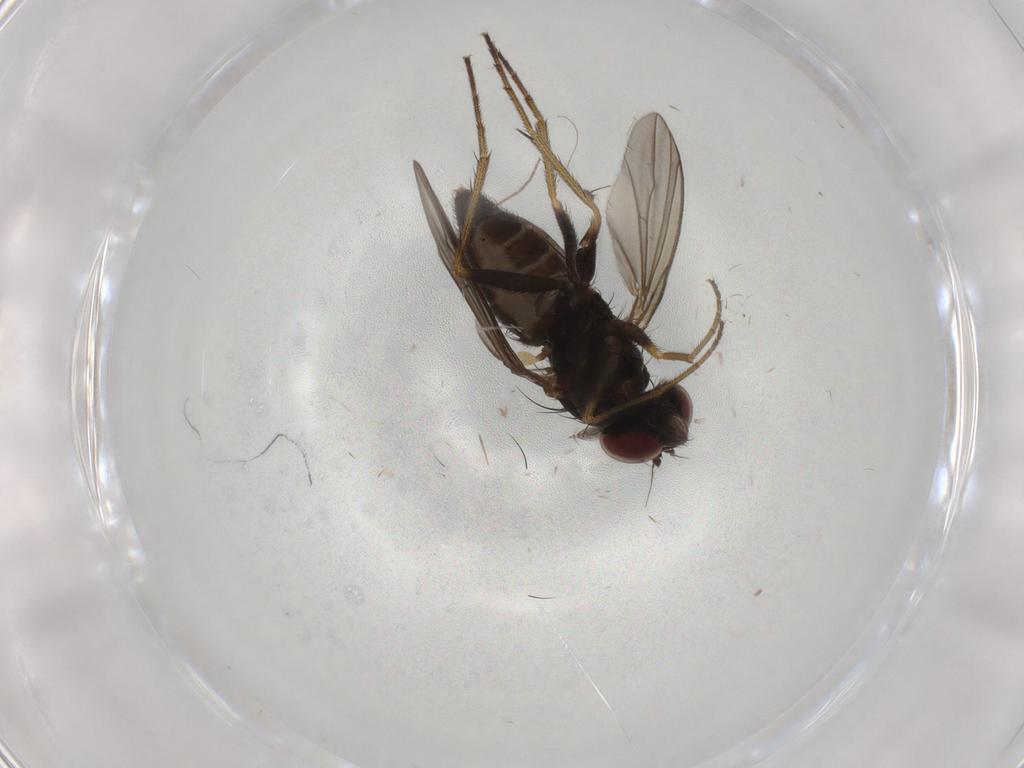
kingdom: Animalia
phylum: Arthropoda
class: Insecta
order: Diptera
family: Dolichopodidae
